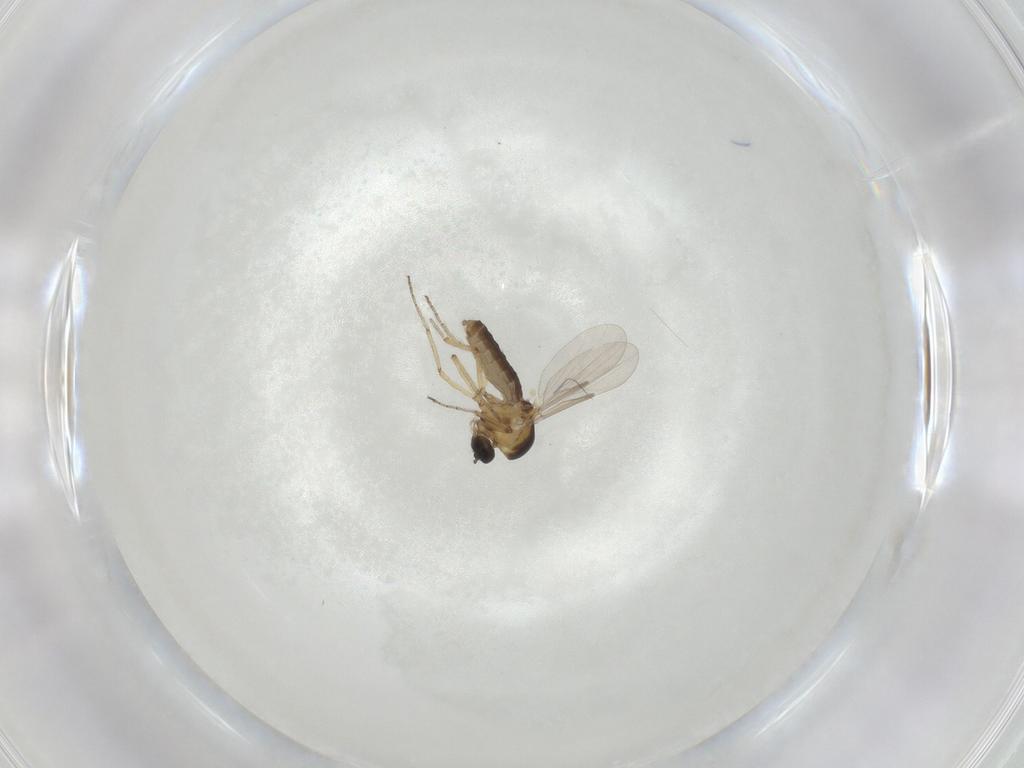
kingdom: Animalia
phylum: Arthropoda
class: Insecta
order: Diptera
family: Ceratopogonidae
